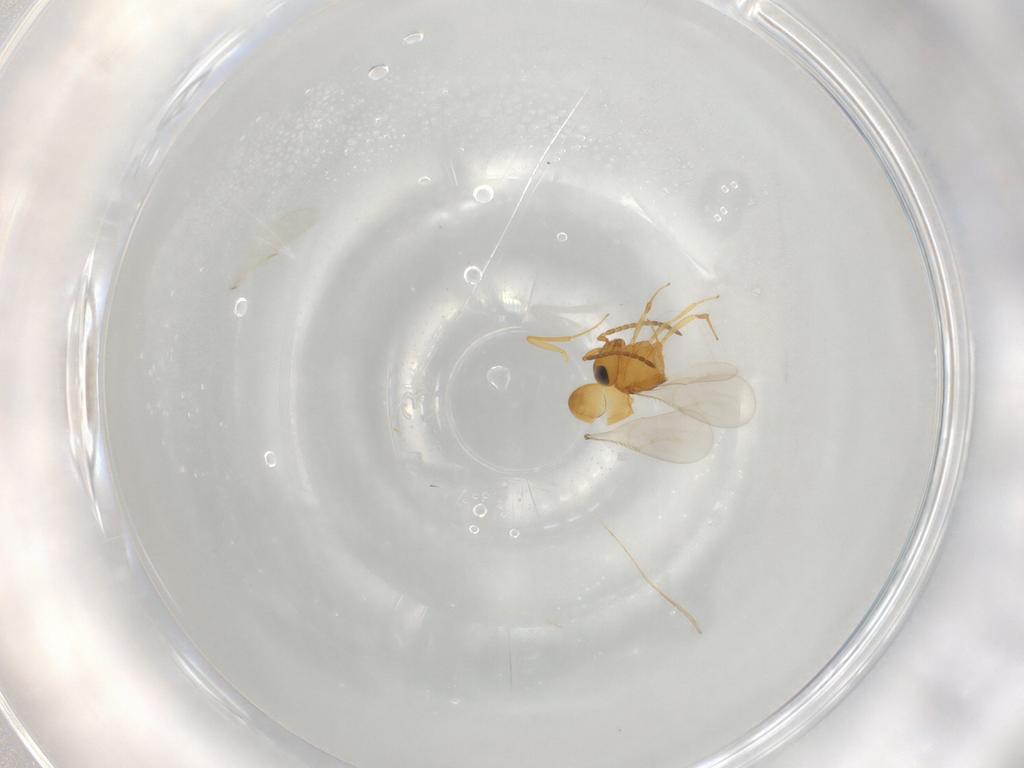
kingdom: Animalia
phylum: Arthropoda
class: Insecta
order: Hymenoptera
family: Scelionidae
